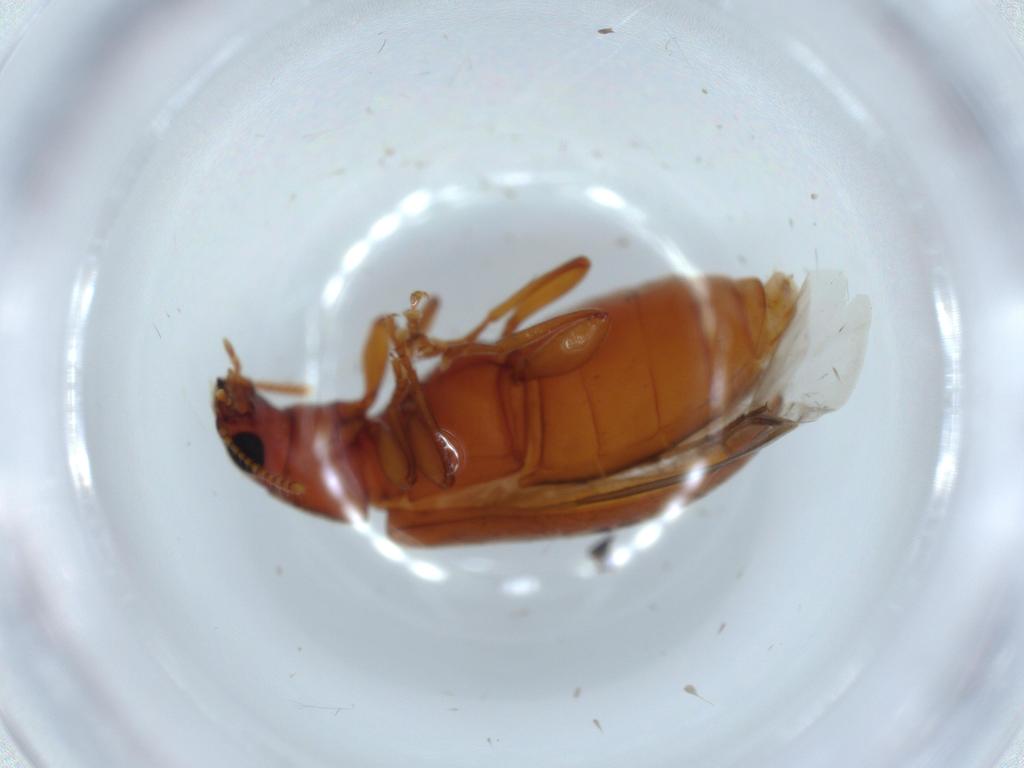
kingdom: Animalia
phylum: Arthropoda
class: Insecta
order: Coleoptera
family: Mycteridae
